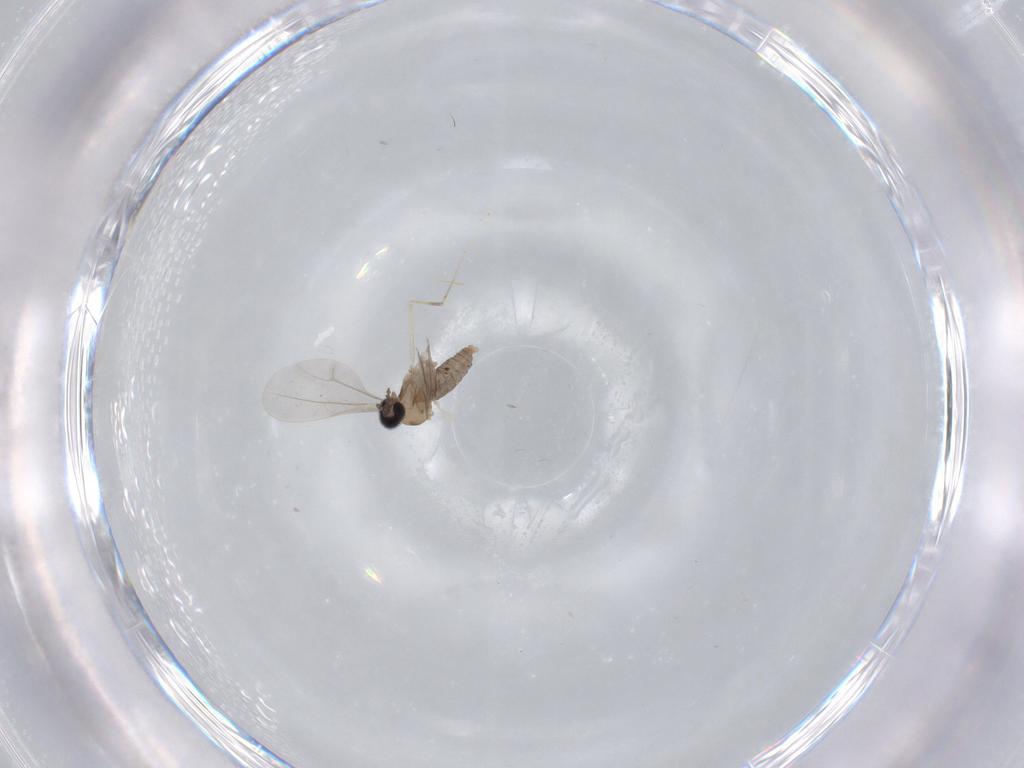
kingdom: Animalia
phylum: Arthropoda
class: Insecta
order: Diptera
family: Cecidomyiidae
